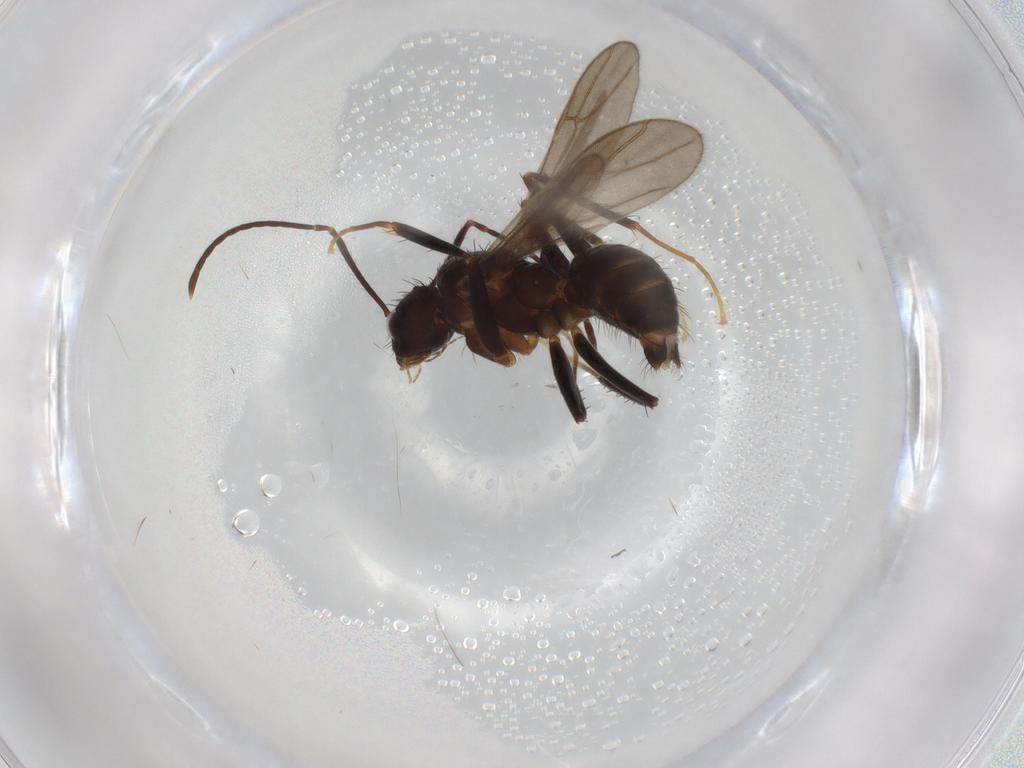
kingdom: Animalia
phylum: Arthropoda
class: Insecta
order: Hymenoptera
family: Formicidae
